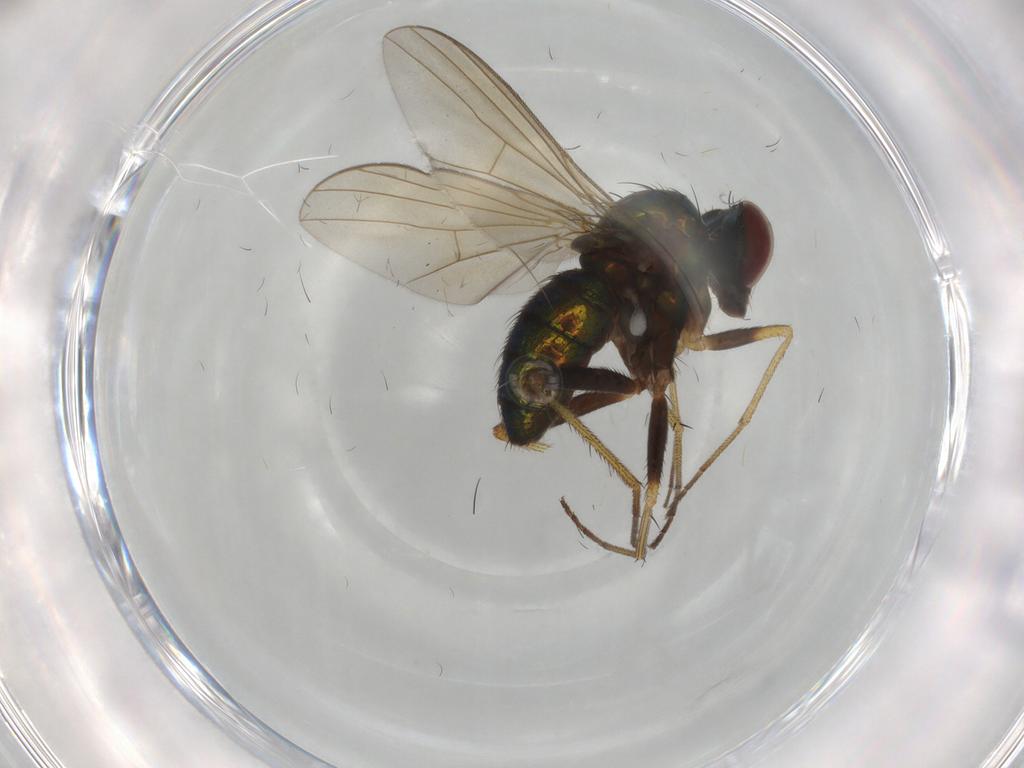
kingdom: Animalia
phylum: Arthropoda
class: Insecta
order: Diptera
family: Dolichopodidae
